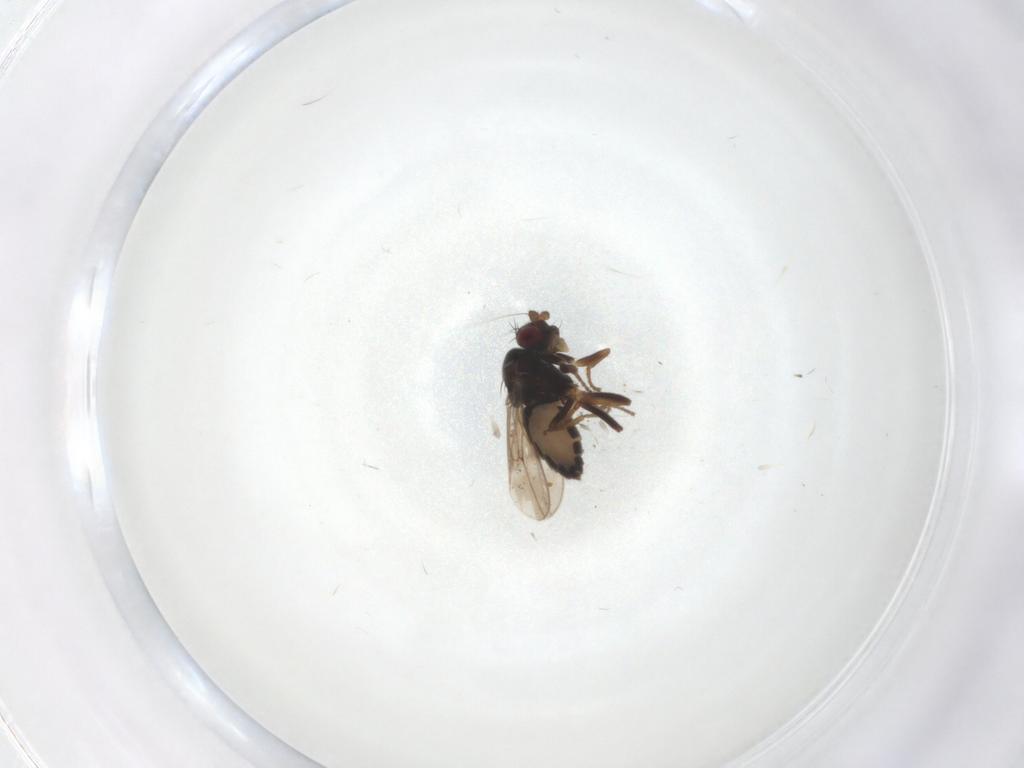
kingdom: Animalia
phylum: Arthropoda
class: Insecta
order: Diptera
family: Sphaeroceridae
